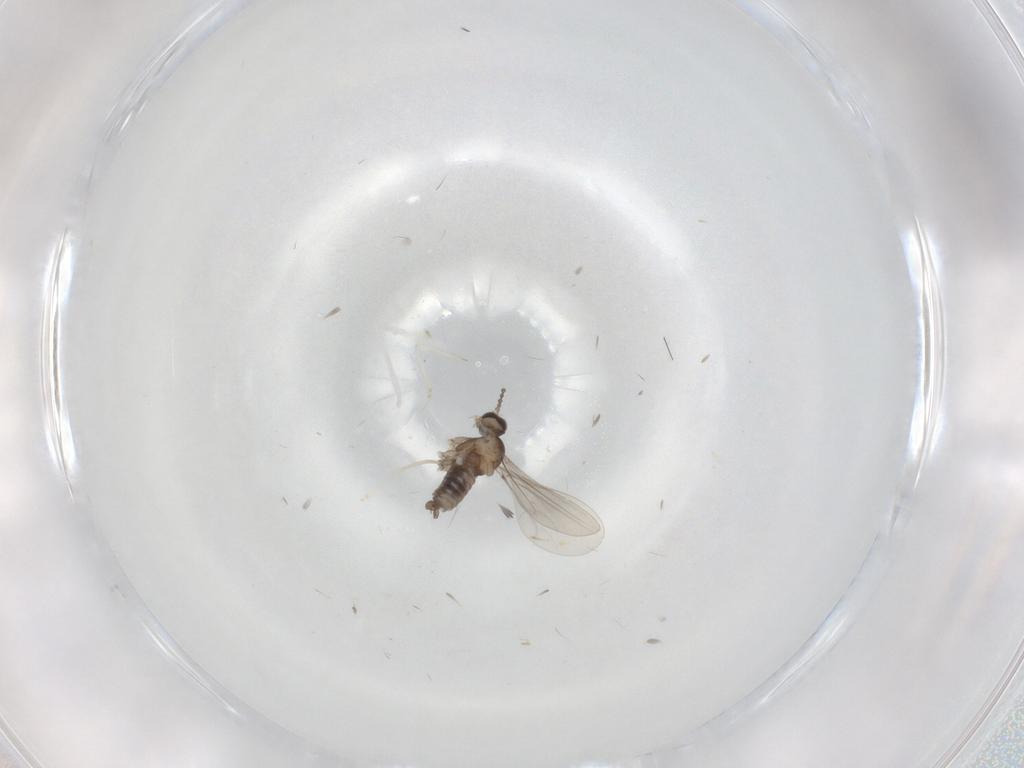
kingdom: Animalia
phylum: Arthropoda
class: Insecta
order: Diptera
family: Cecidomyiidae
